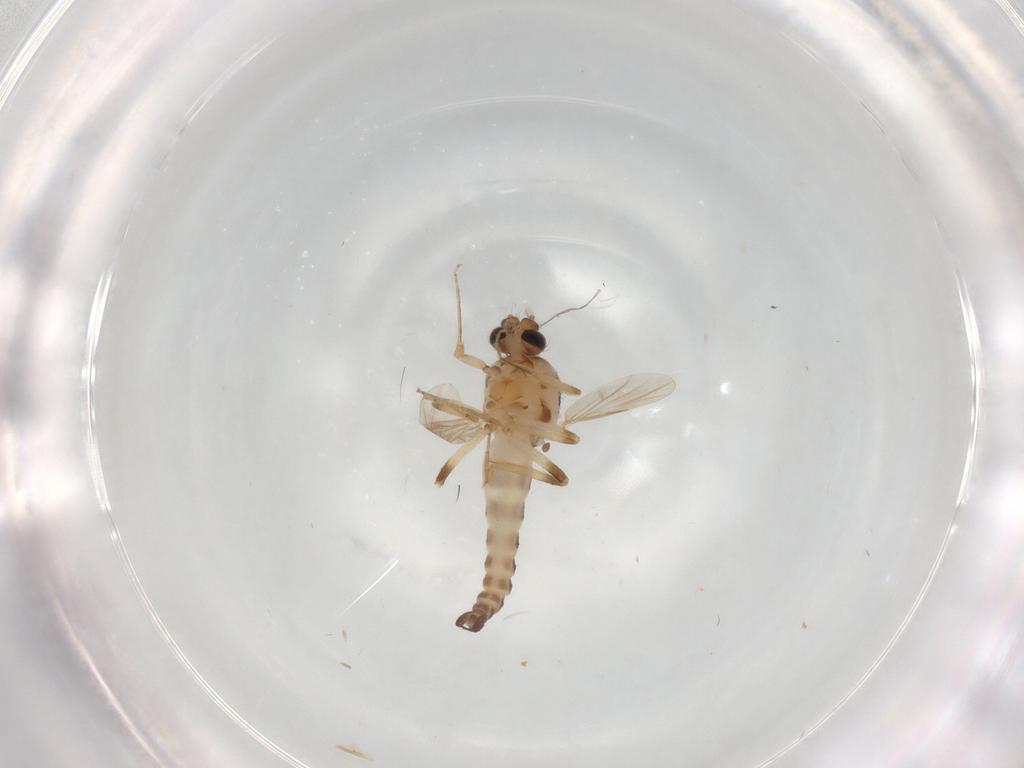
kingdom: Animalia
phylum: Arthropoda
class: Insecta
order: Diptera
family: Ceratopogonidae
